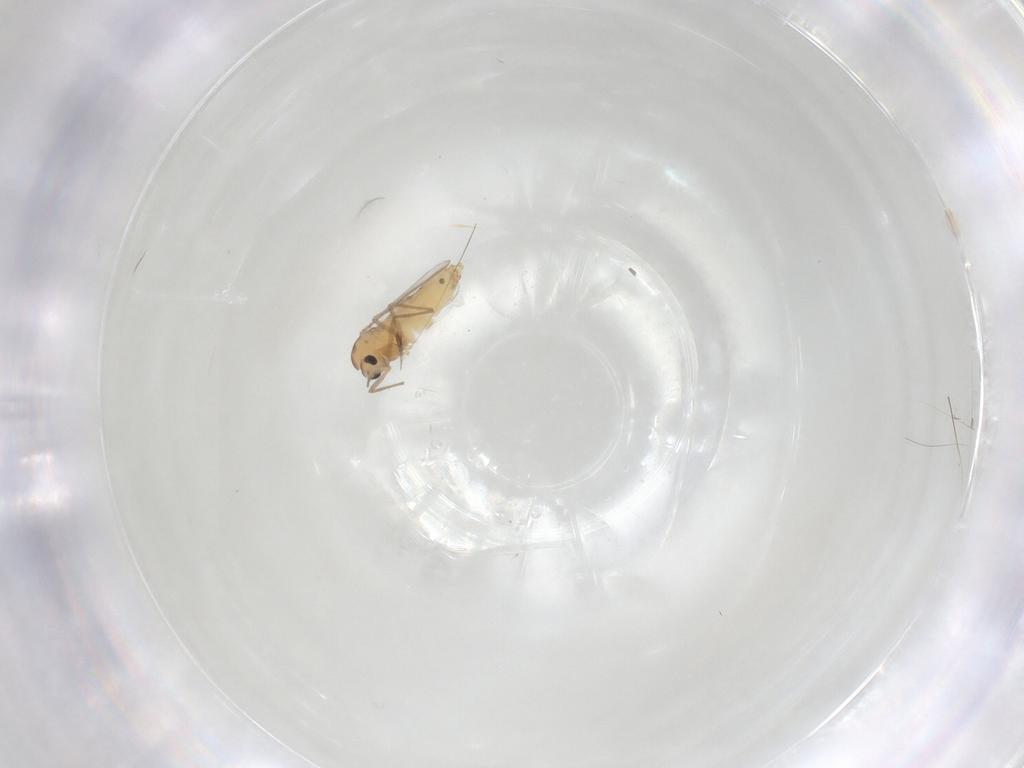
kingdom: Animalia
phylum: Arthropoda
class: Insecta
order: Diptera
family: Chironomidae
